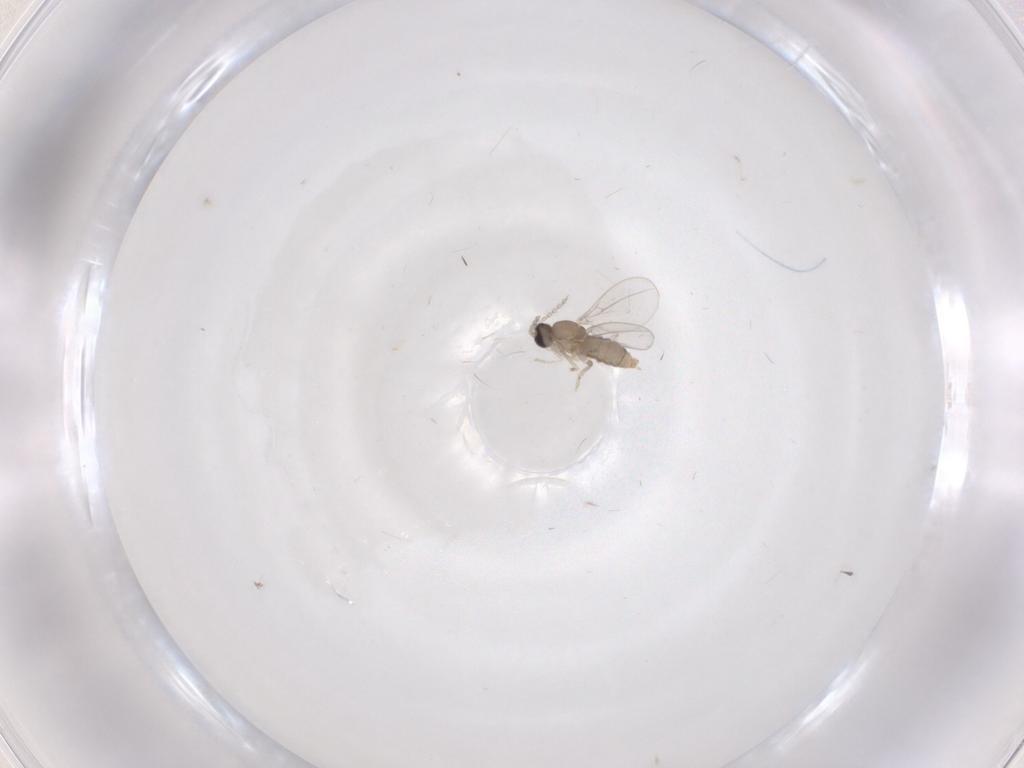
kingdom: Animalia
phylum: Arthropoda
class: Insecta
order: Diptera
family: Cecidomyiidae
